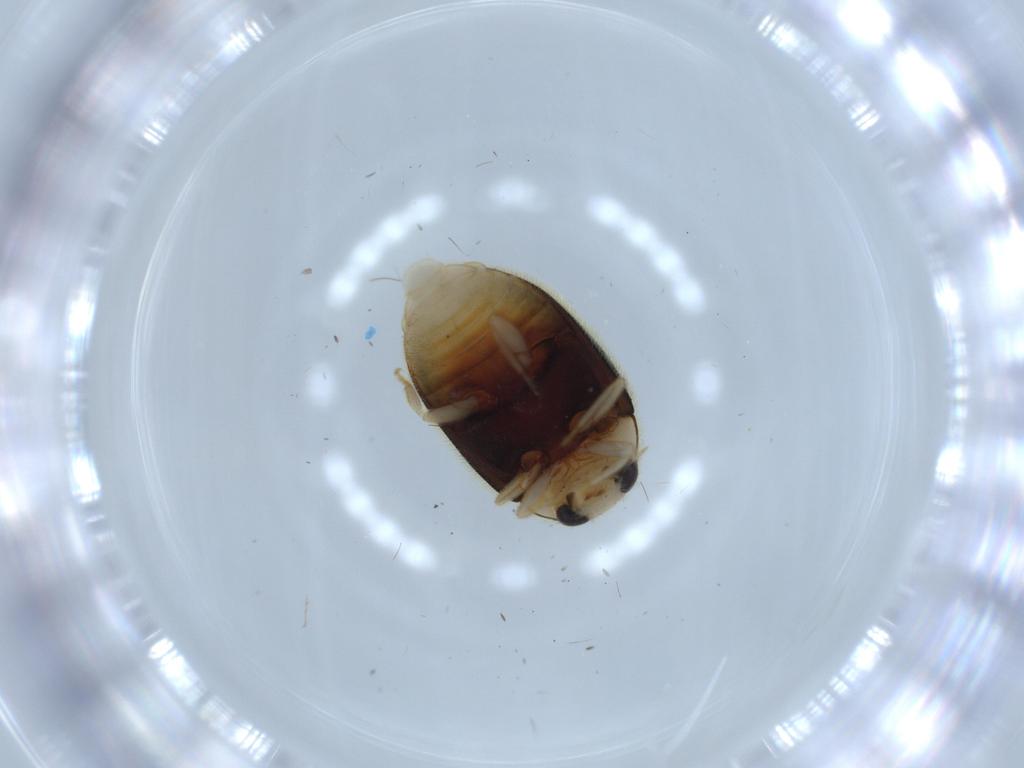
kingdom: Animalia
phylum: Arthropoda
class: Insecta
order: Coleoptera
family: Coccinellidae
